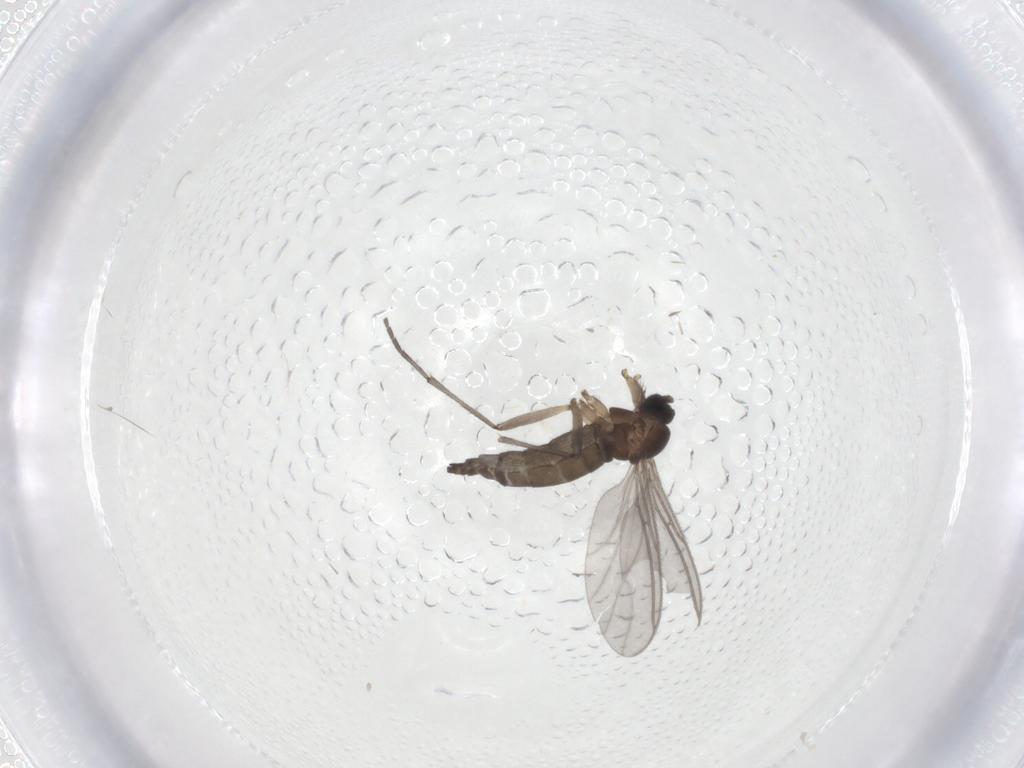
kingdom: Animalia
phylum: Arthropoda
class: Insecta
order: Diptera
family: Sciaridae
